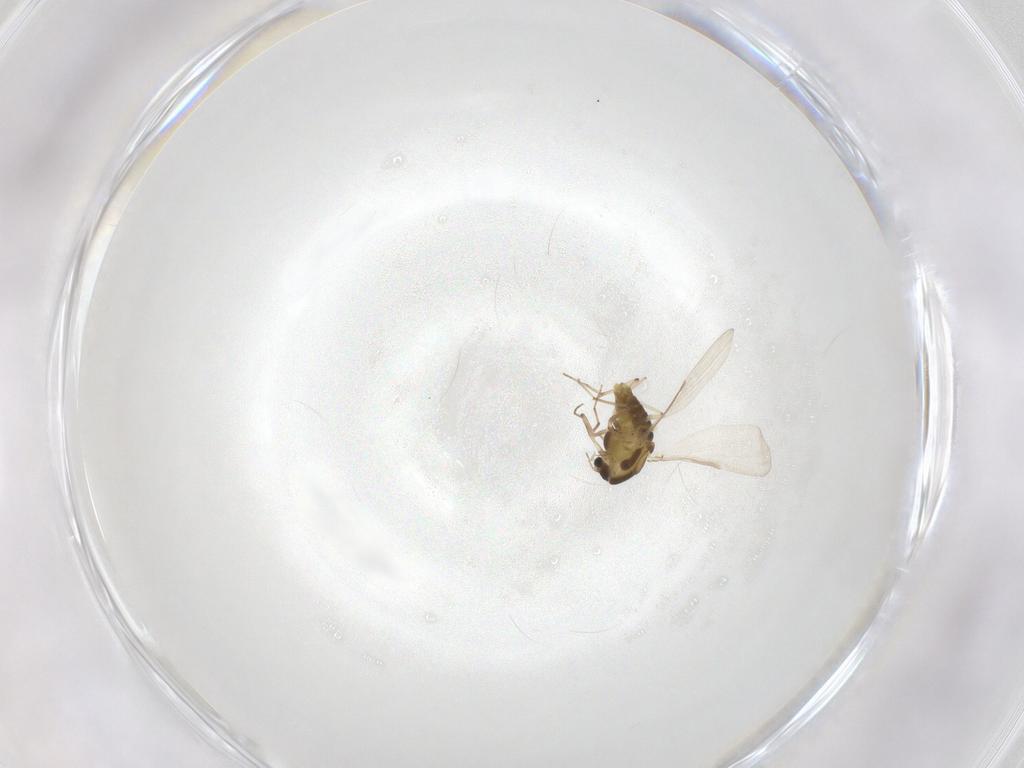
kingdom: Animalia
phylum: Arthropoda
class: Insecta
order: Diptera
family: Chironomidae
